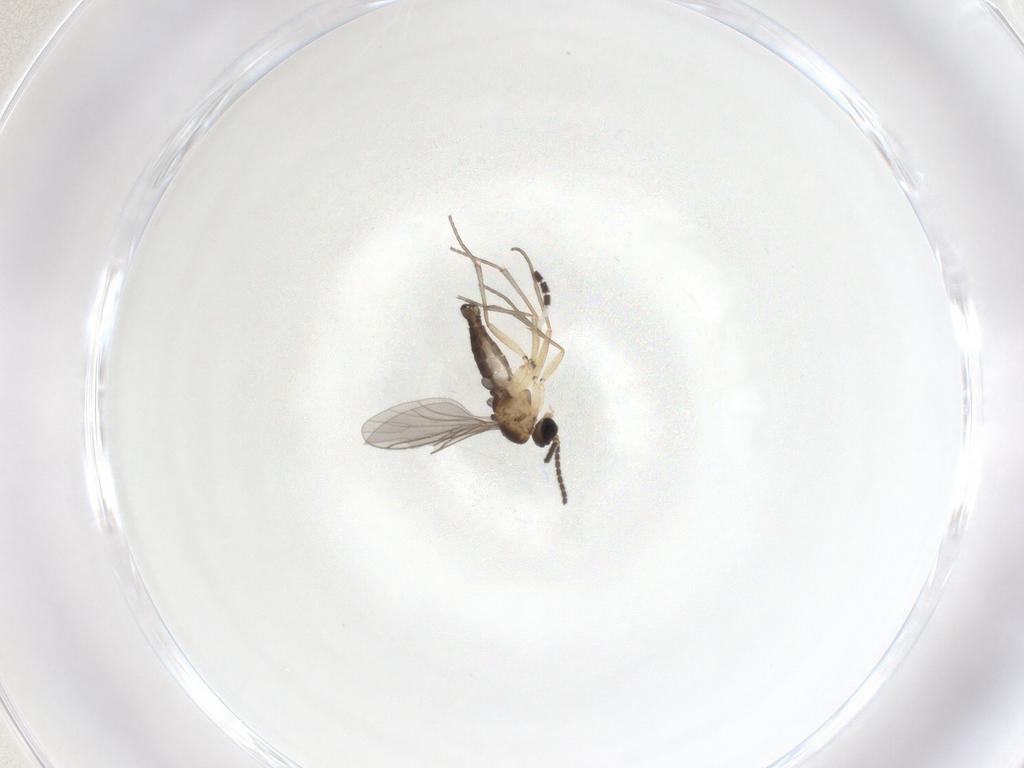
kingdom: Animalia
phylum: Arthropoda
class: Insecta
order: Diptera
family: Sciaridae
